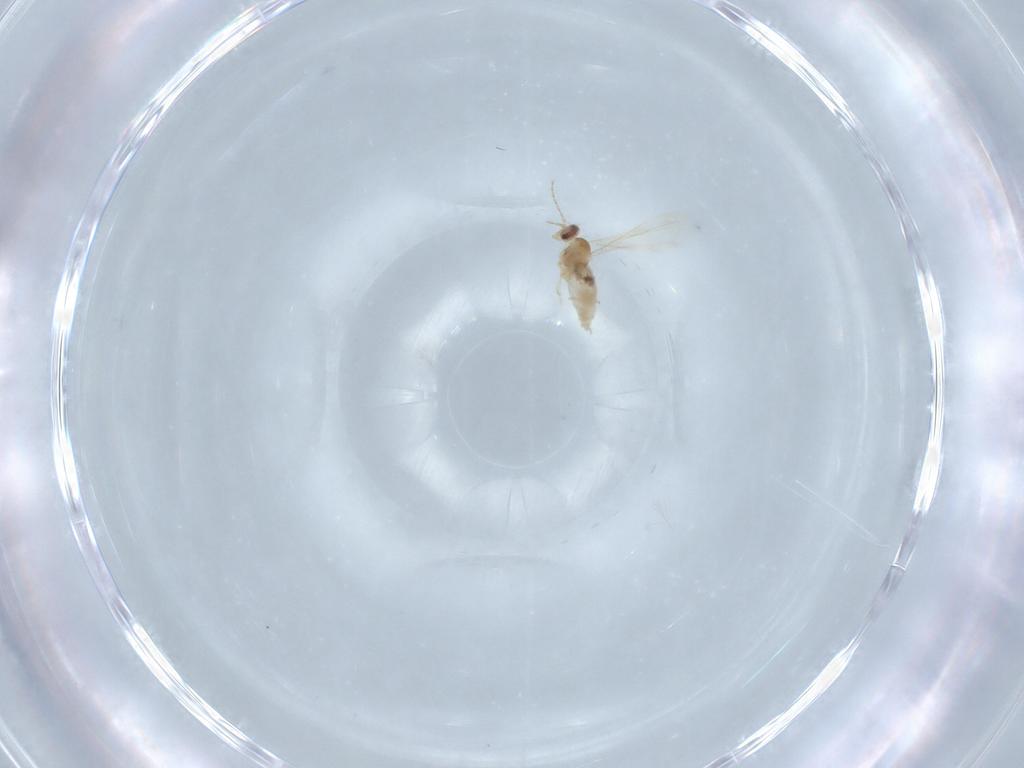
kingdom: Animalia
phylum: Arthropoda
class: Insecta
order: Diptera
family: Muscidae
